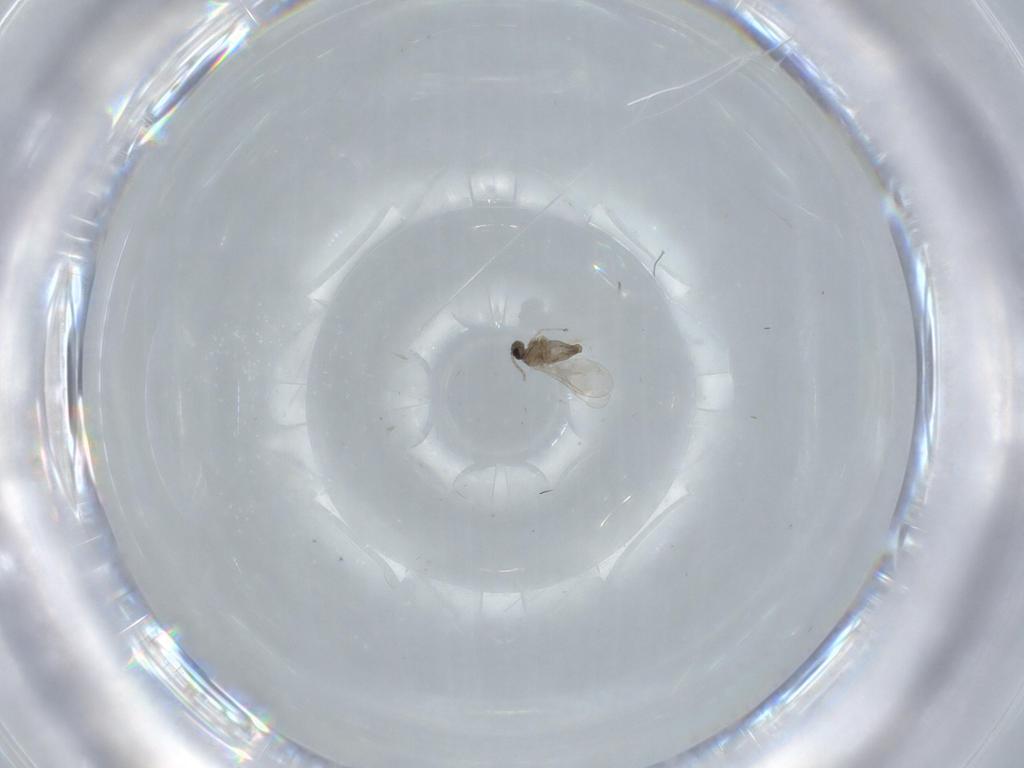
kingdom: Animalia
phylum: Arthropoda
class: Insecta
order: Diptera
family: Cecidomyiidae
